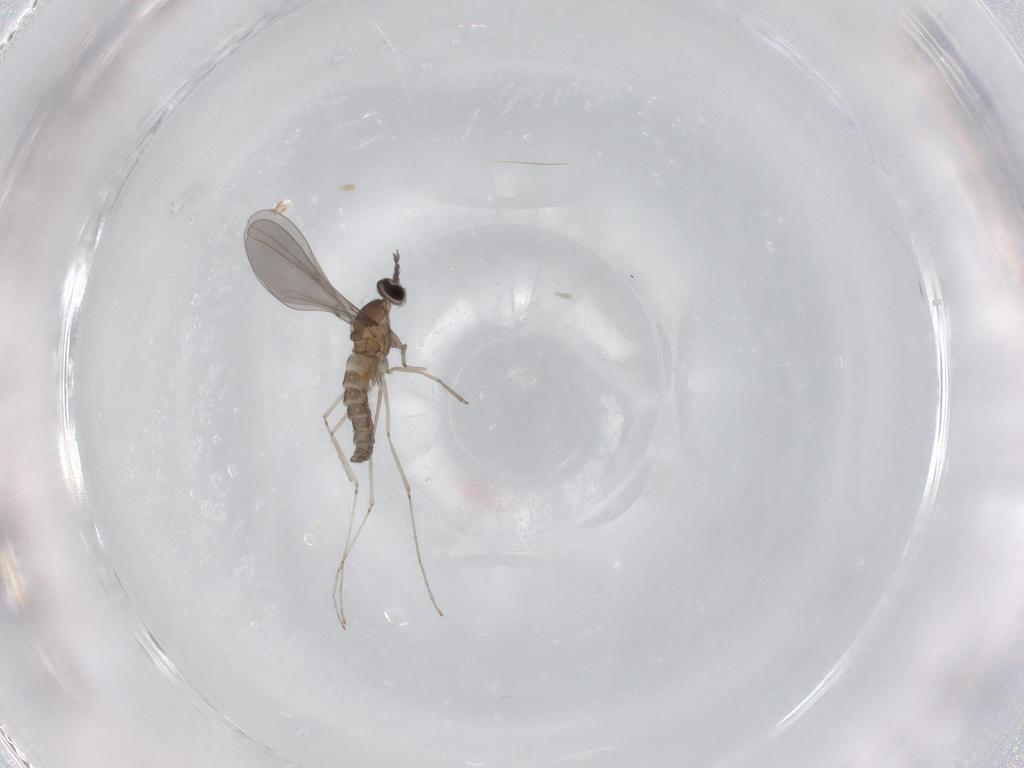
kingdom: Animalia
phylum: Arthropoda
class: Insecta
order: Diptera
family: Cecidomyiidae
